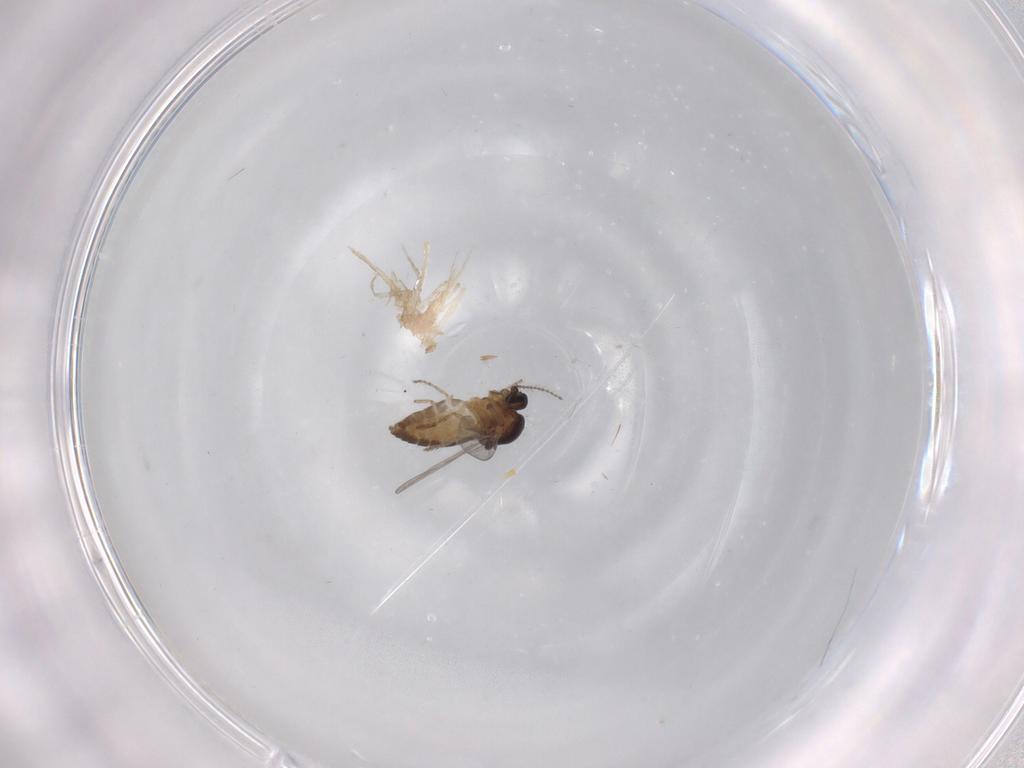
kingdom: Animalia
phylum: Arthropoda
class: Insecta
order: Diptera
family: Ceratopogonidae
